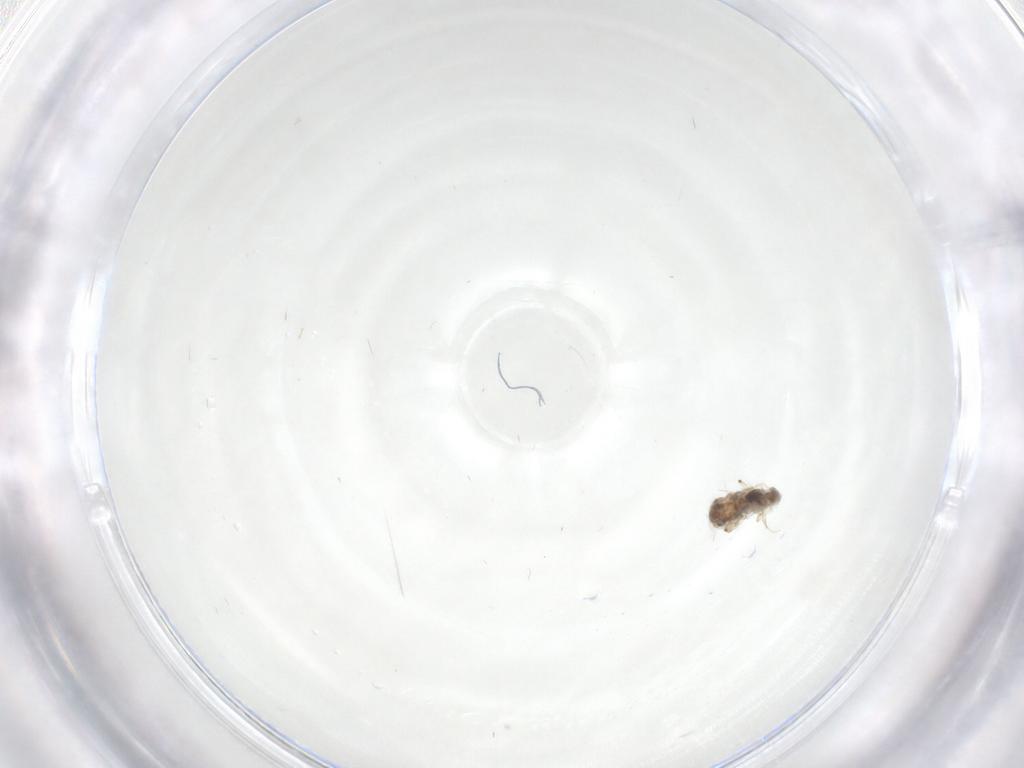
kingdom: Animalia
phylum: Arthropoda
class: Insecta
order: Diptera
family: Chironomidae
